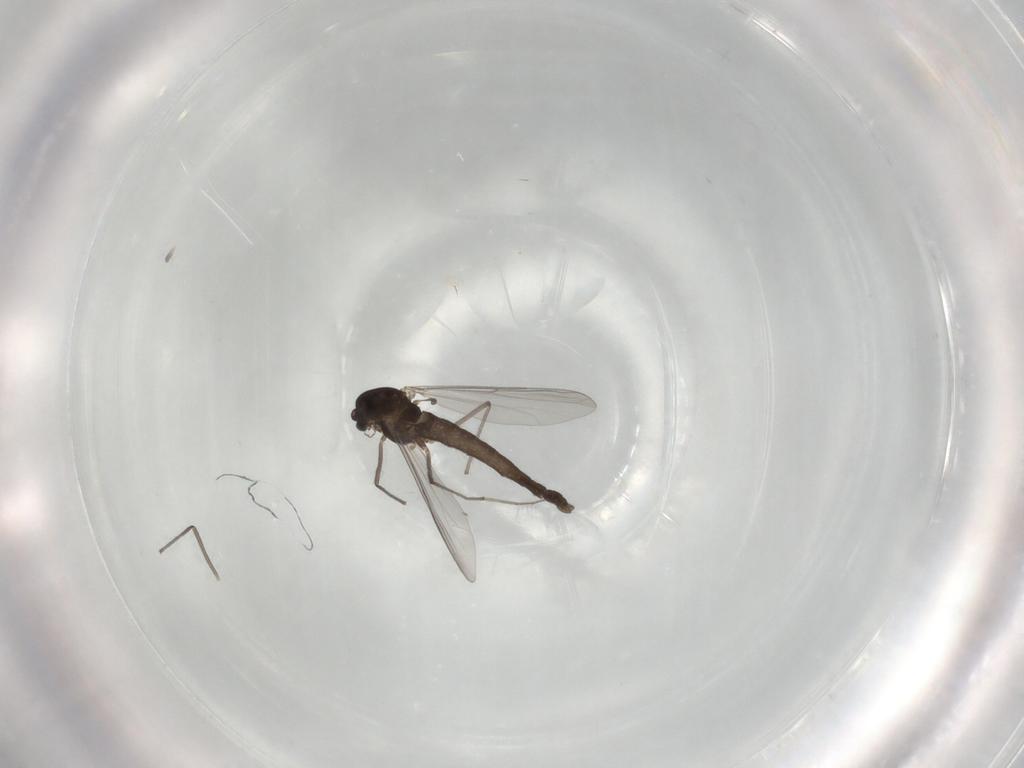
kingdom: Animalia
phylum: Arthropoda
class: Insecta
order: Diptera
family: Chironomidae
